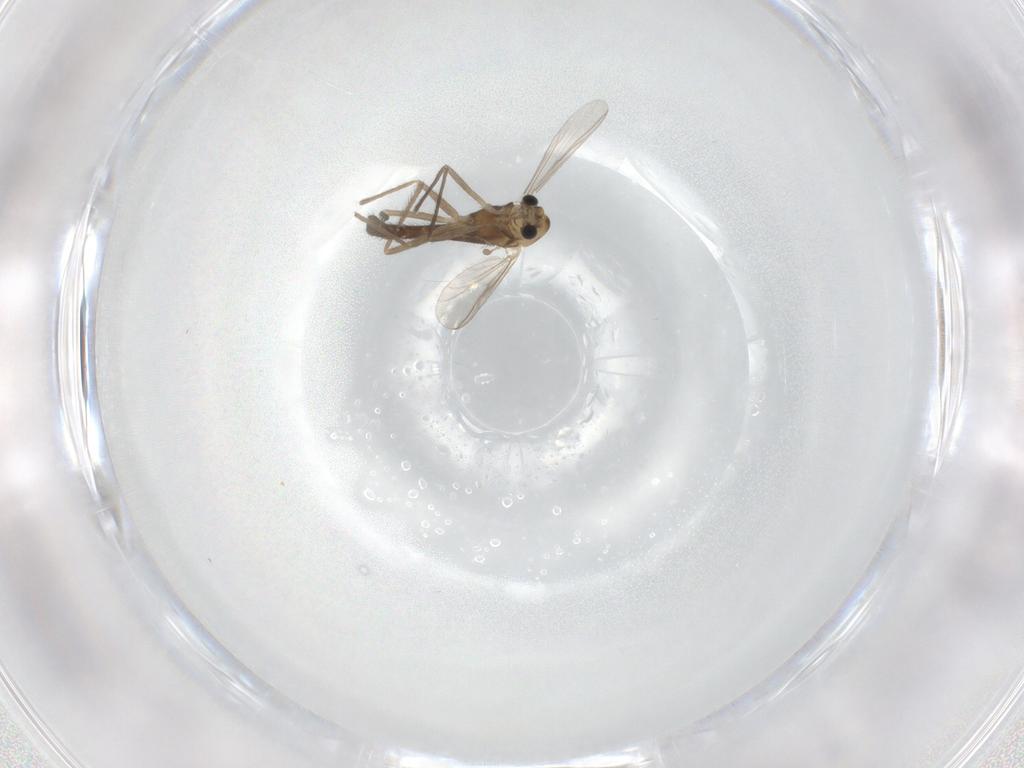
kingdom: Animalia
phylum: Arthropoda
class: Insecta
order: Diptera
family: Chironomidae
